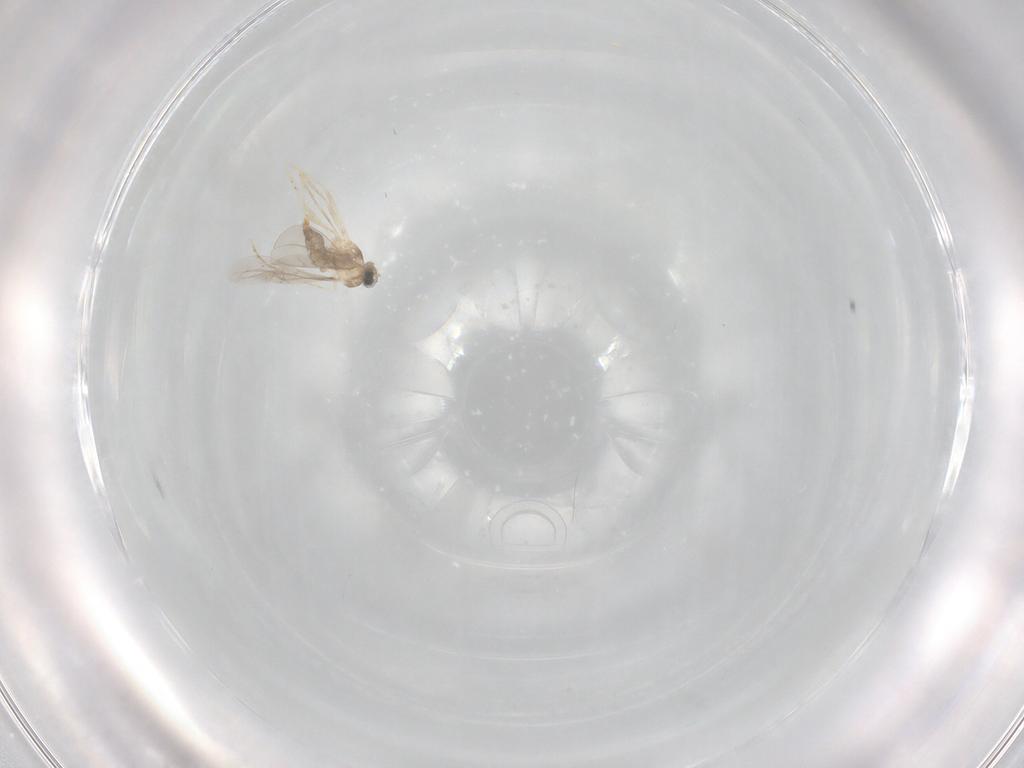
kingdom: Animalia
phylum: Arthropoda
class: Insecta
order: Diptera
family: Cecidomyiidae
